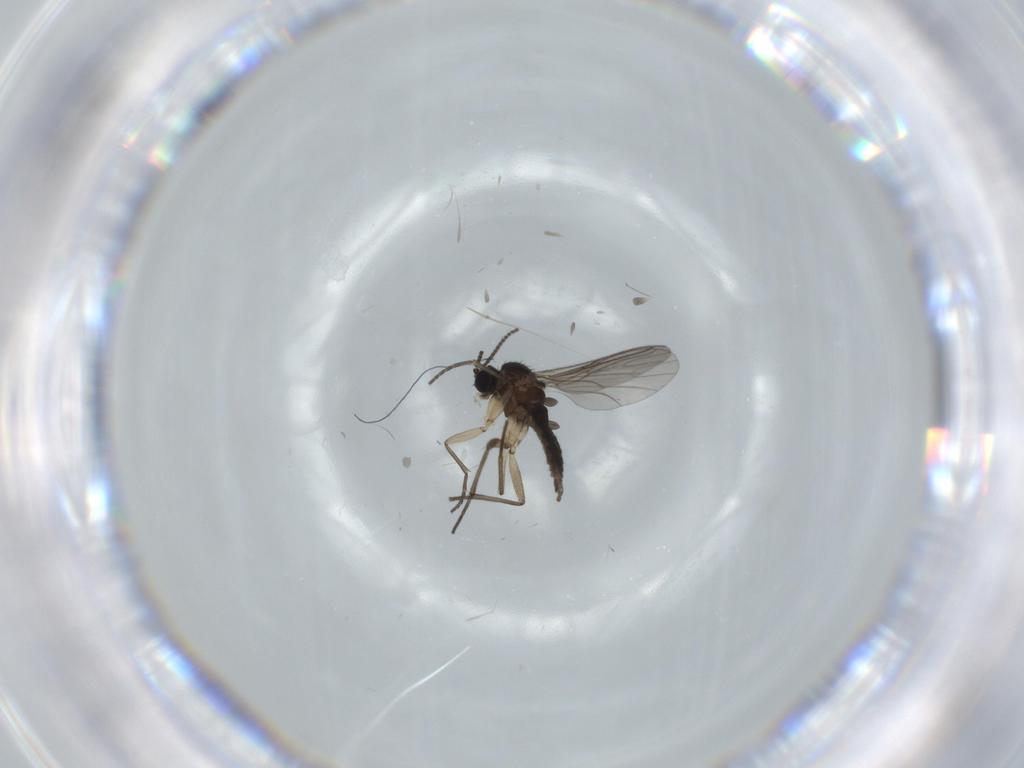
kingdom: Animalia
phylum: Arthropoda
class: Insecta
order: Diptera
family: Sciaridae
